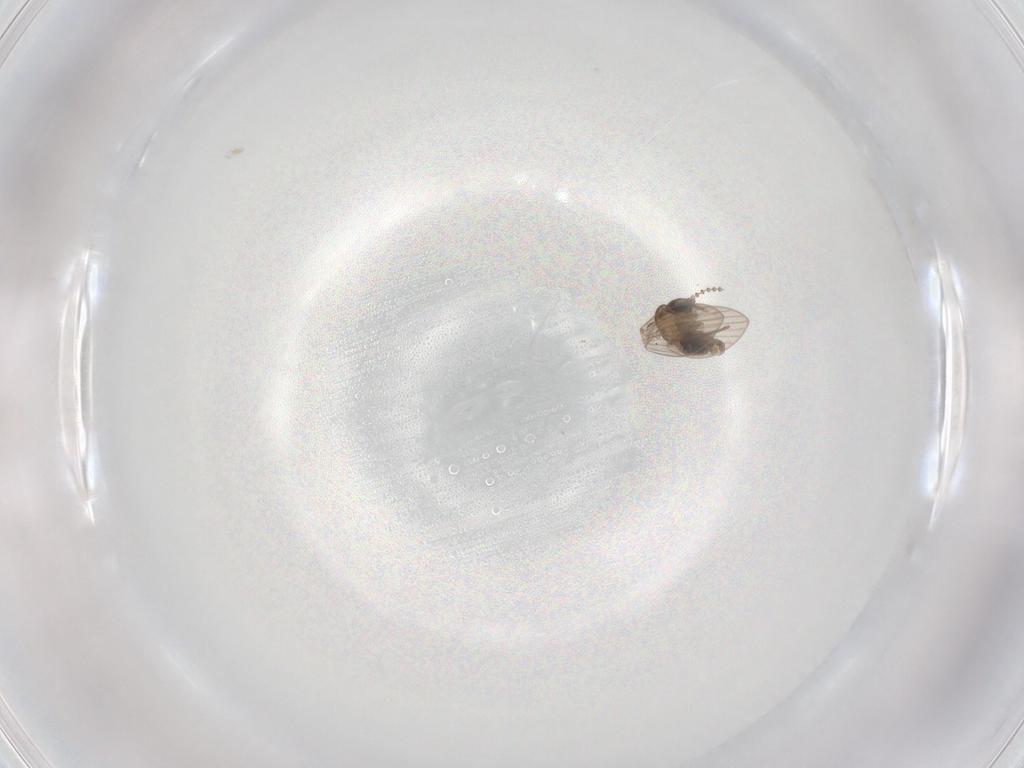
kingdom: Animalia
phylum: Arthropoda
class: Insecta
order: Diptera
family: Psychodidae
